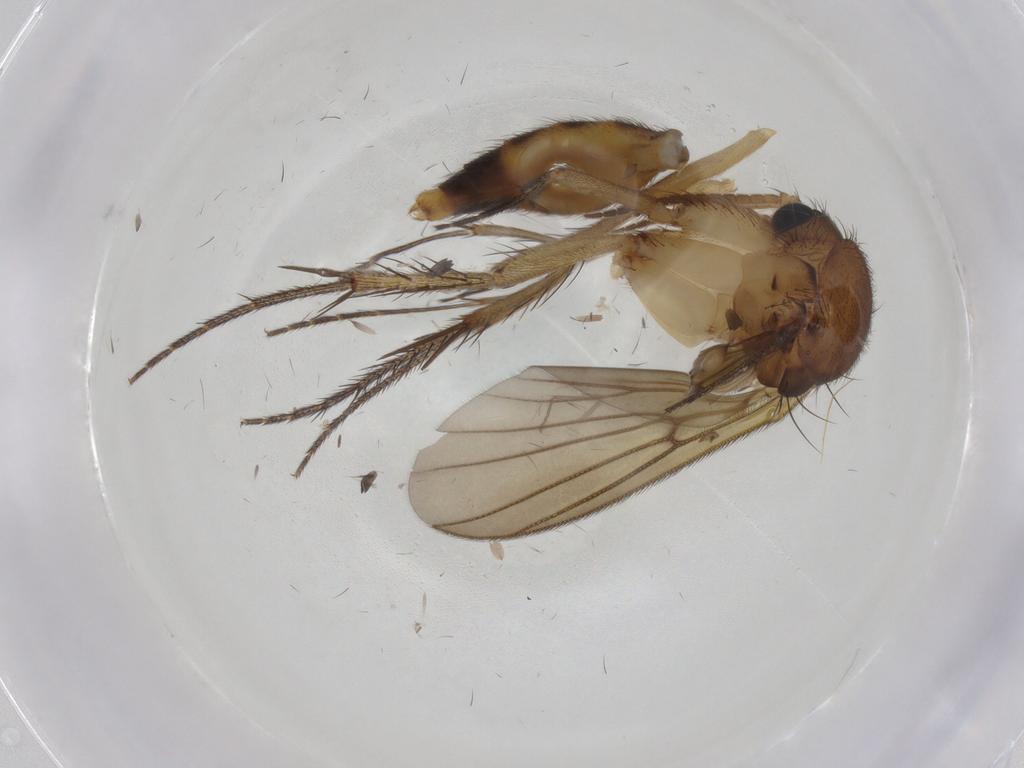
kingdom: Animalia
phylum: Arthropoda
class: Insecta
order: Diptera
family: Mycetophilidae
